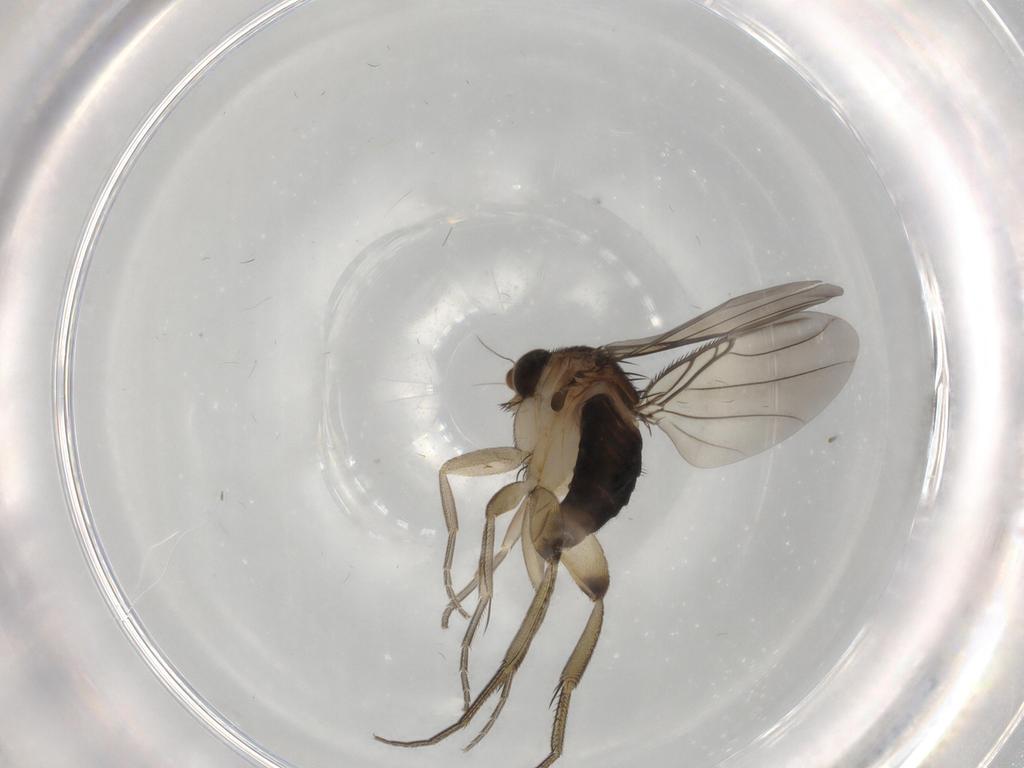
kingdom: Animalia
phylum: Arthropoda
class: Insecta
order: Diptera
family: Phoridae
